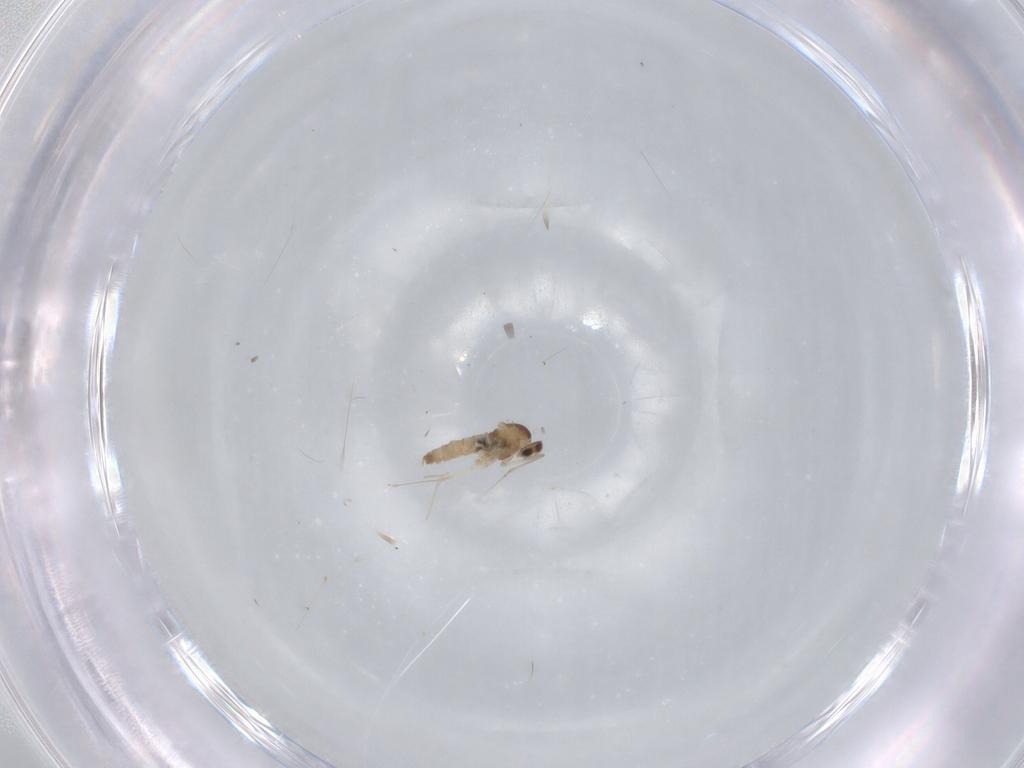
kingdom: Animalia
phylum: Arthropoda
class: Insecta
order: Diptera
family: Cecidomyiidae
